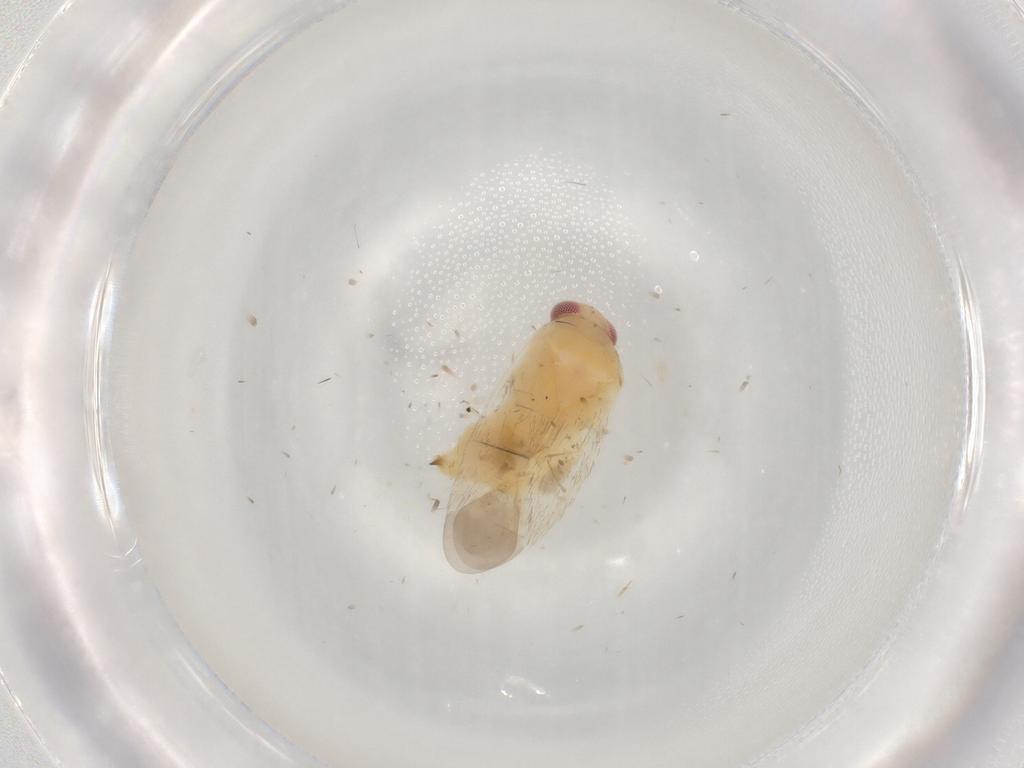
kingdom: Animalia
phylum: Arthropoda
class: Insecta
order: Hemiptera
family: Miridae
